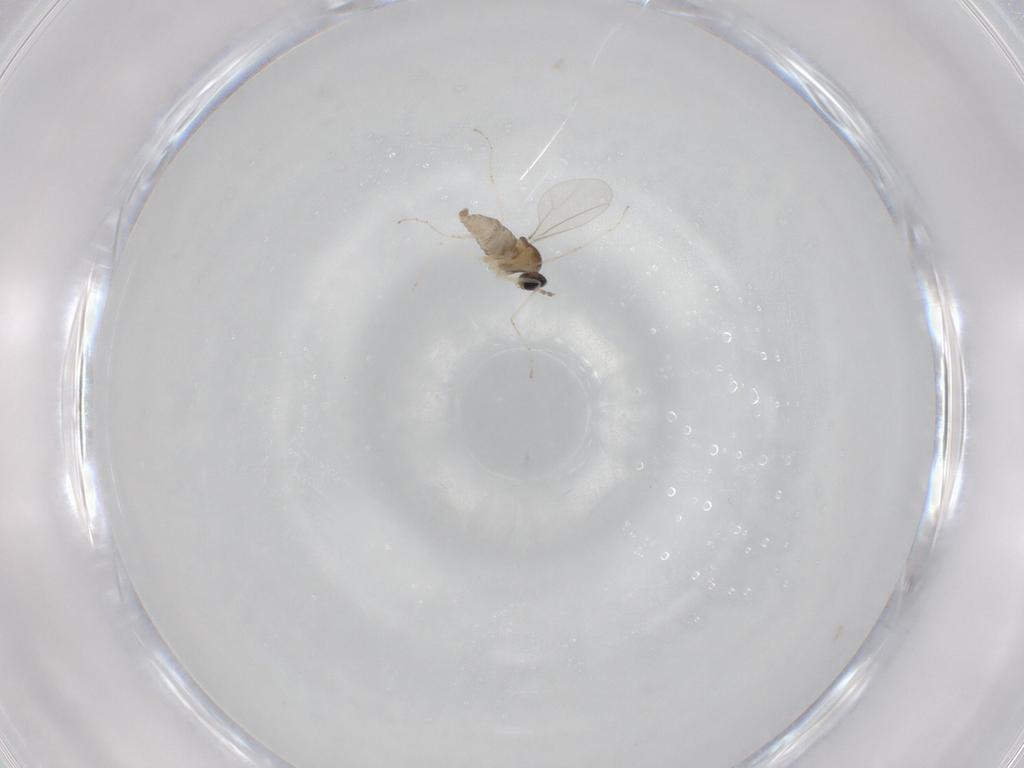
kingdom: Animalia
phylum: Arthropoda
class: Insecta
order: Diptera
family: Cecidomyiidae
